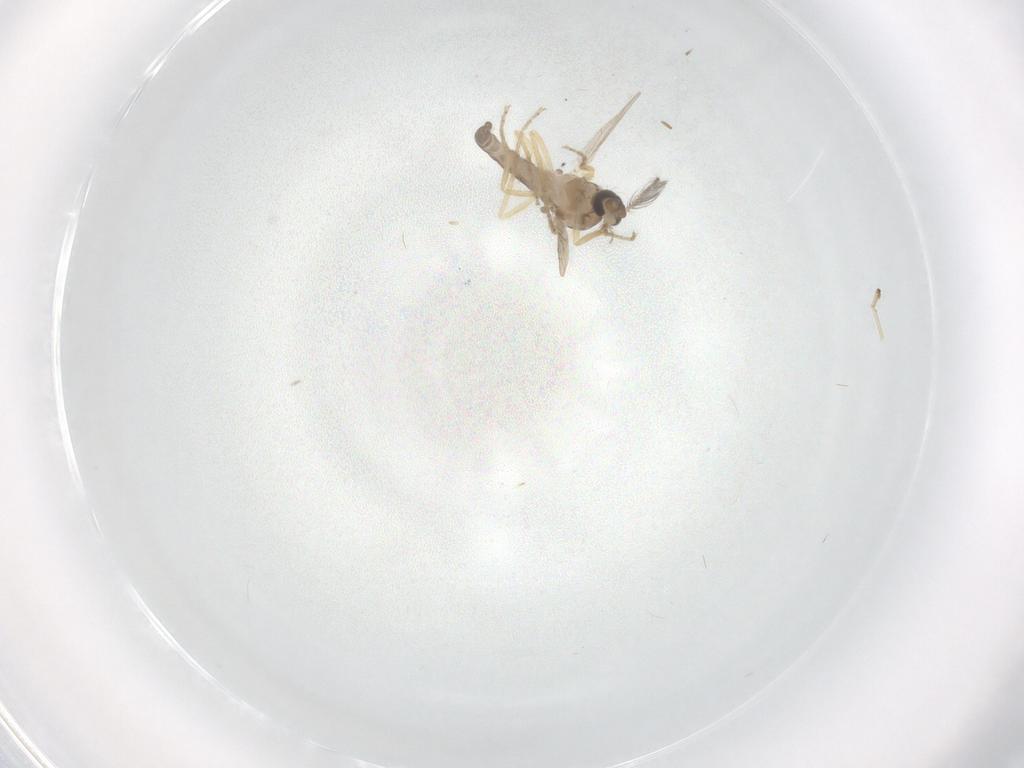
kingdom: Animalia
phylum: Arthropoda
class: Insecta
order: Diptera
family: Ceratopogonidae
